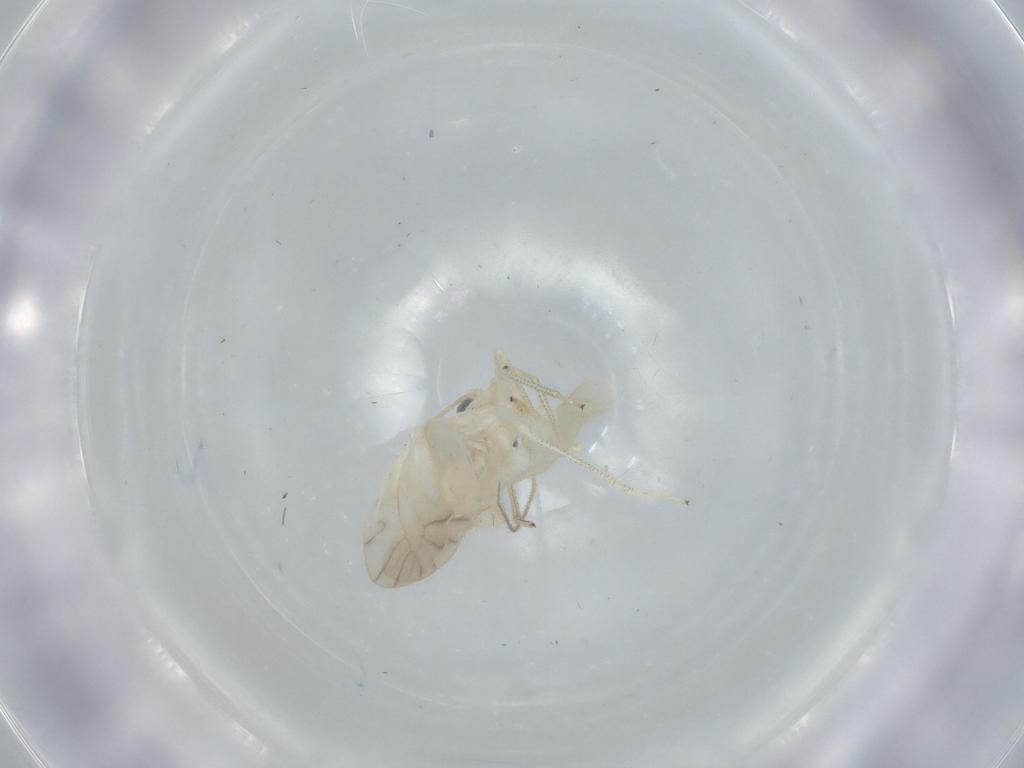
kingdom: Animalia
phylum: Arthropoda
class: Insecta
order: Psocodea
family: Caeciliusidae
